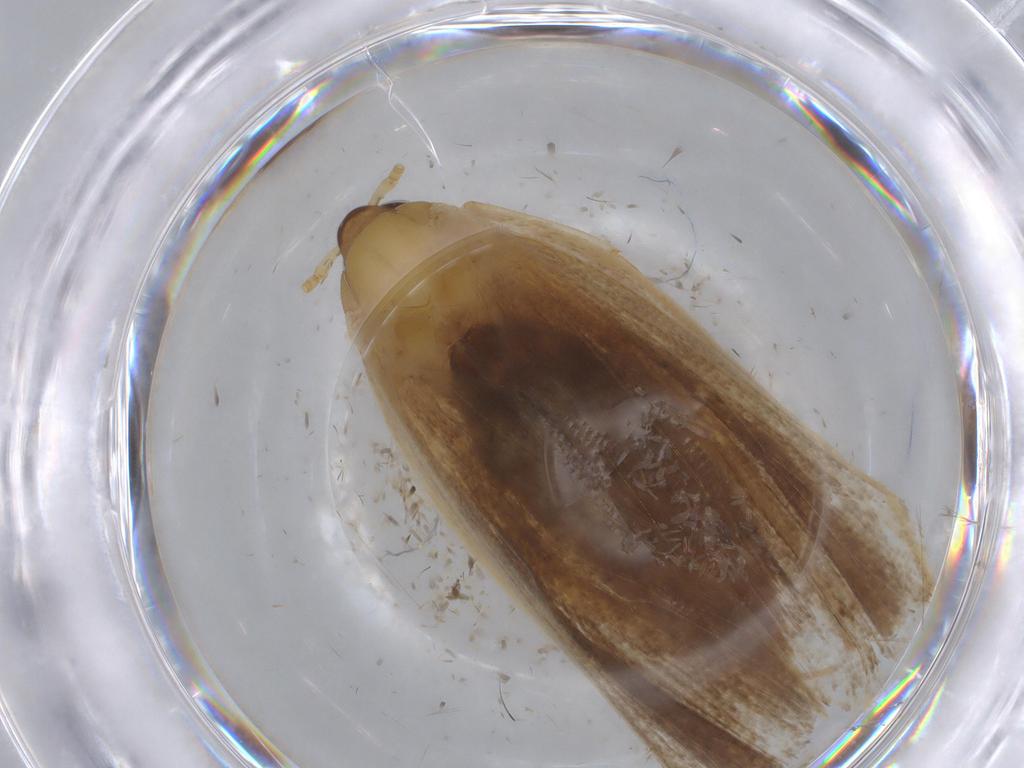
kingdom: Animalia
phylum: Arthropoda
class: Insecta
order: Lepidoptera
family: Lecithoceridae
